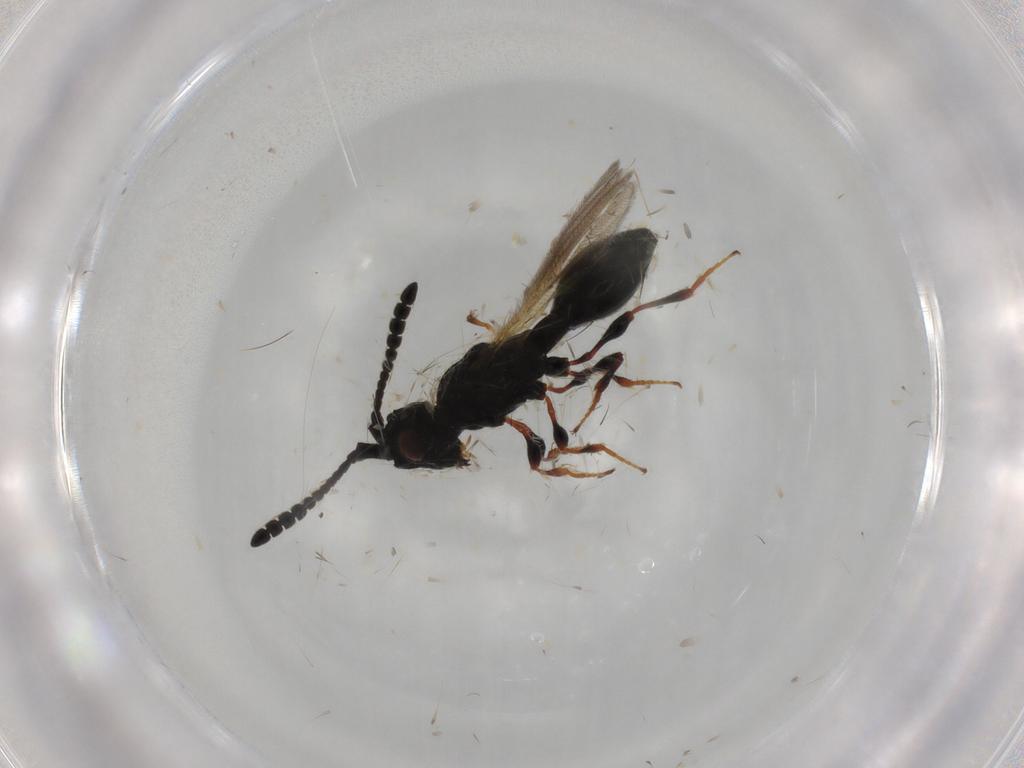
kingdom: Animalia
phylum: Arthropoda
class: Insecta
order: Hymenoptera
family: Formicidae
